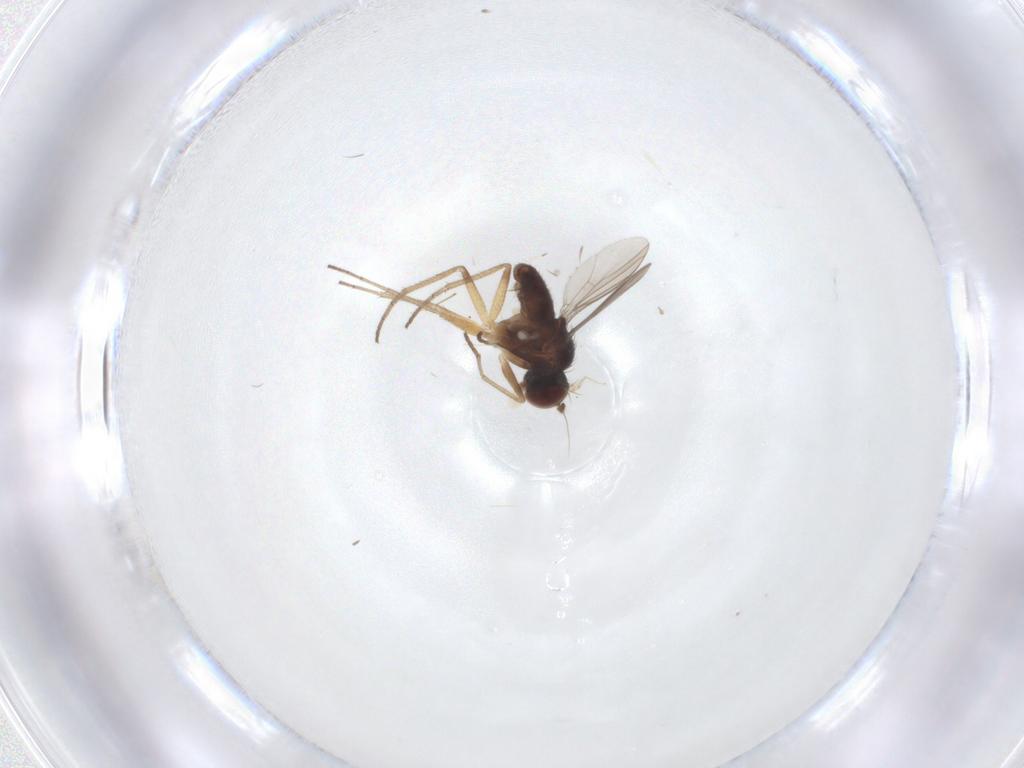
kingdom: Animalia
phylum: Arthropoda
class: Insecta
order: Diptera
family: Dolichopodidae
